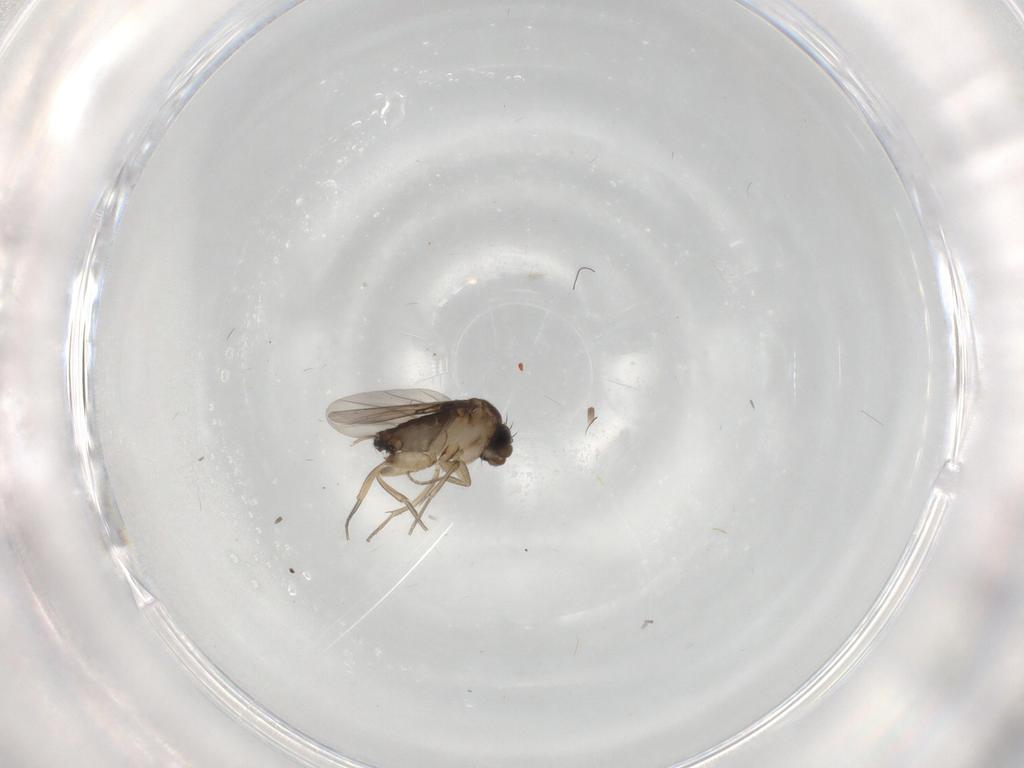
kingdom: Animalia
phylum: Arthropoda
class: Insecta
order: Diptera
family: Phoridae
